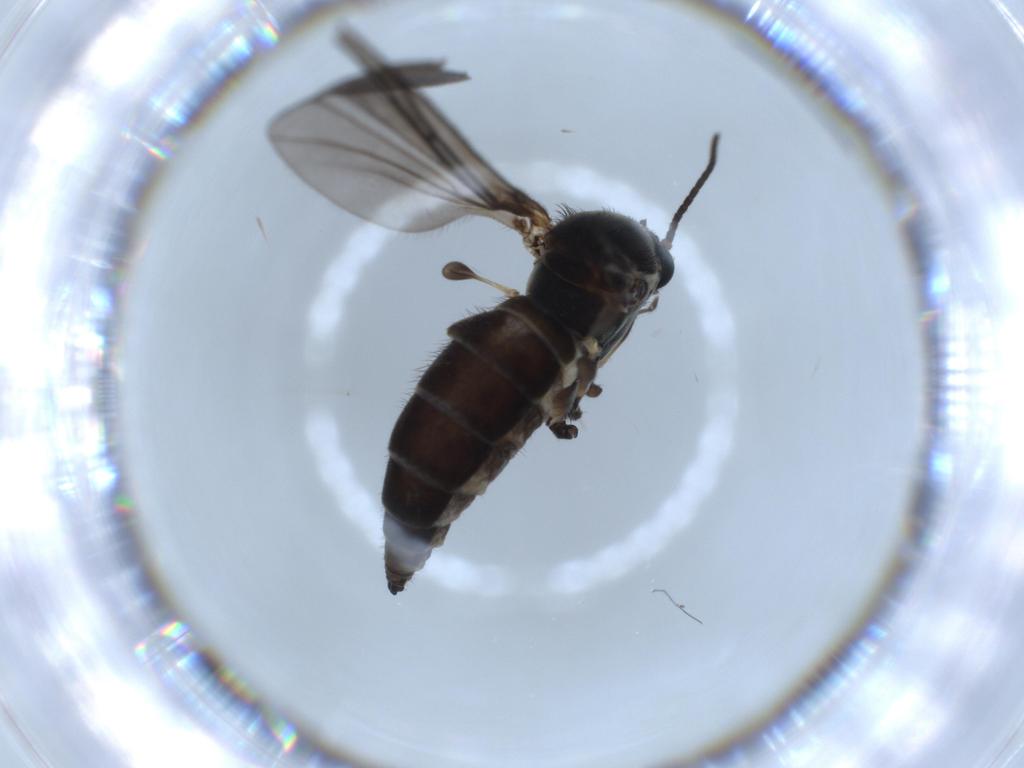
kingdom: Animalia
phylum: Arthropoda
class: Insecta
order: Diptera
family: Sciaridae
